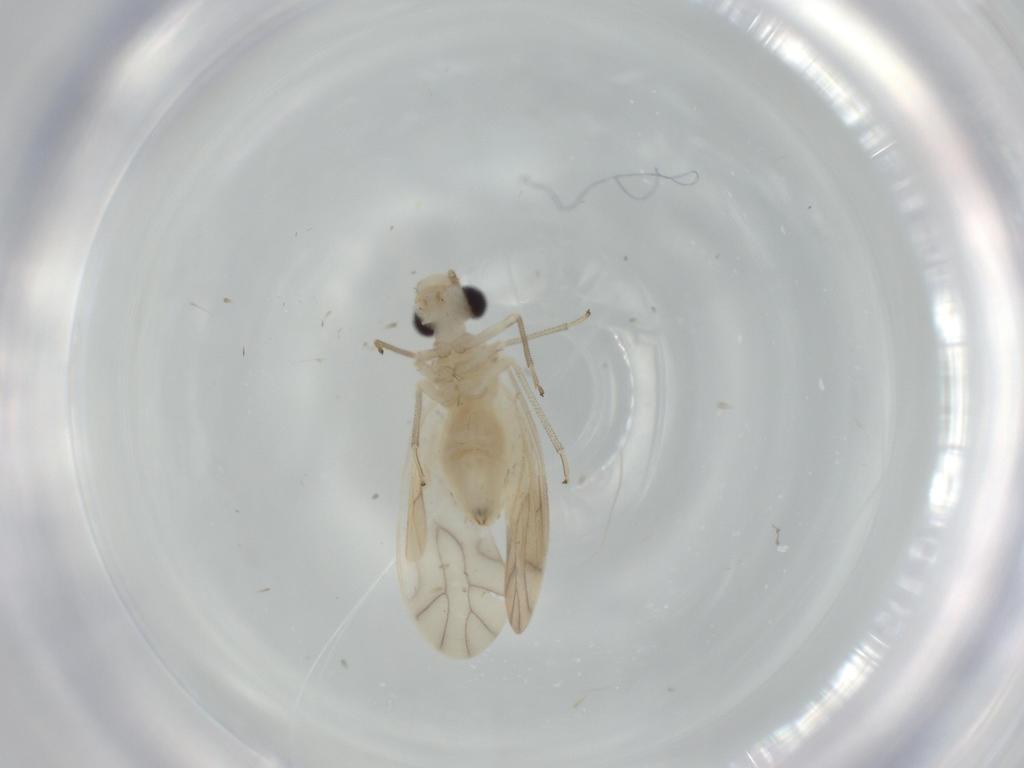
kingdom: Animalia
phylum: Arthropoda
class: Insecta
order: Psocodea
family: Caeciliusidae
